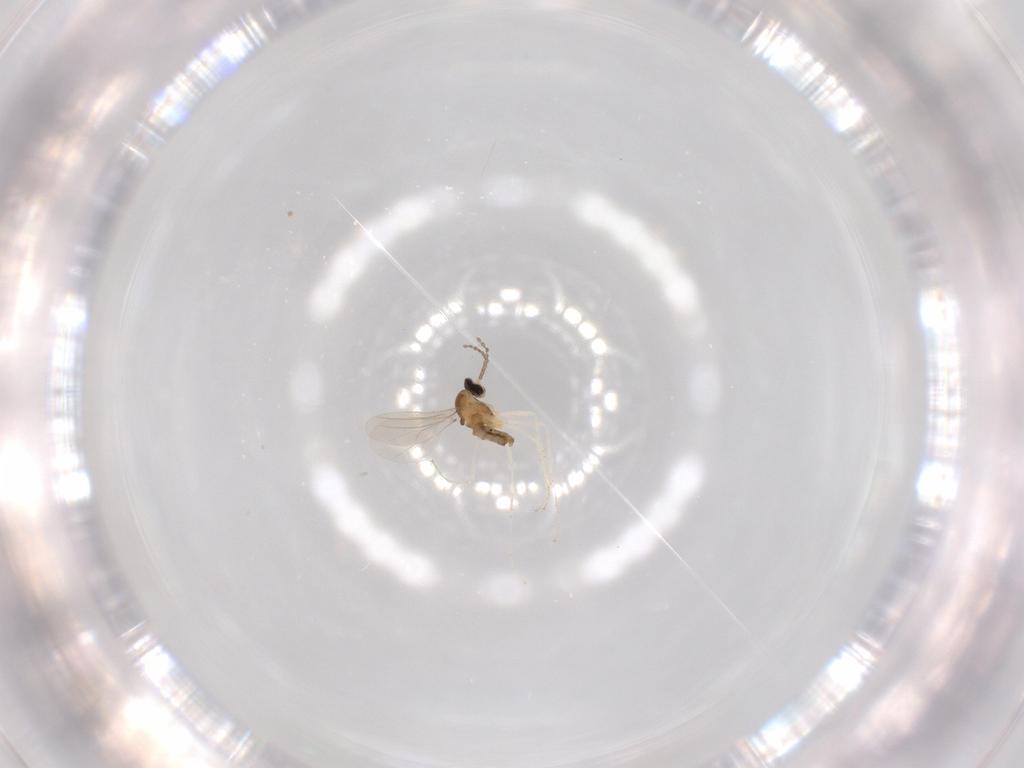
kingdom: Animalia
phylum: Arthropoda
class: Insecta
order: Diptera
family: Cecidomyiidae
